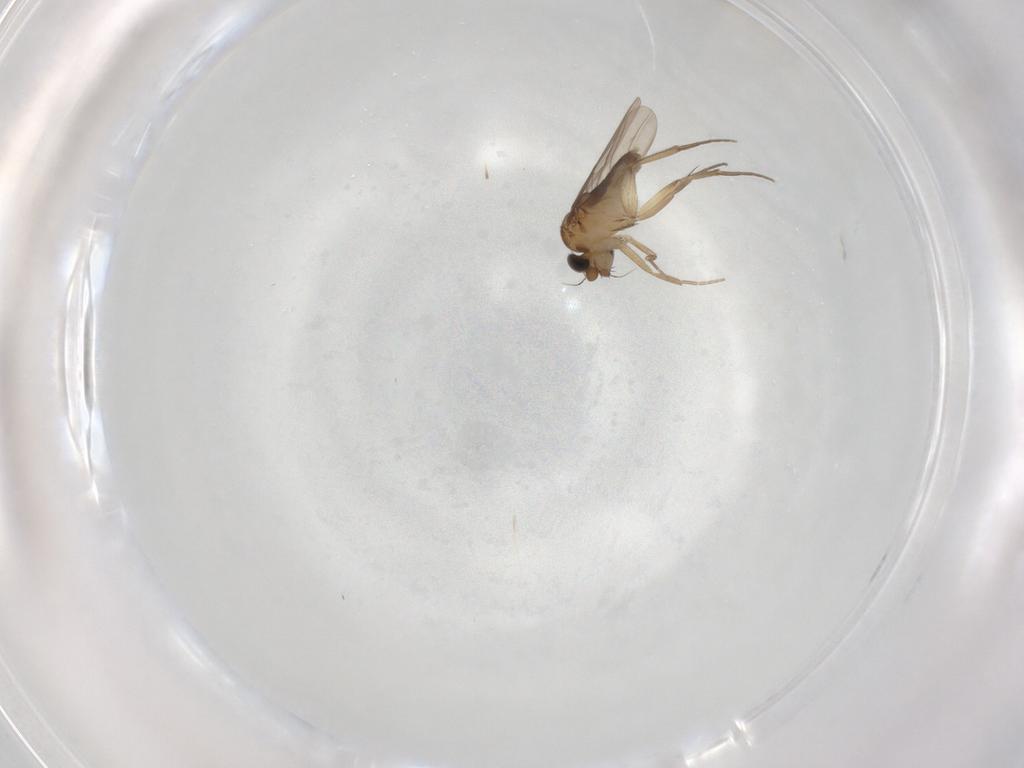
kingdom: Animalia
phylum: Arthropoda
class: Insecta
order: Diptera
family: Phoridae
